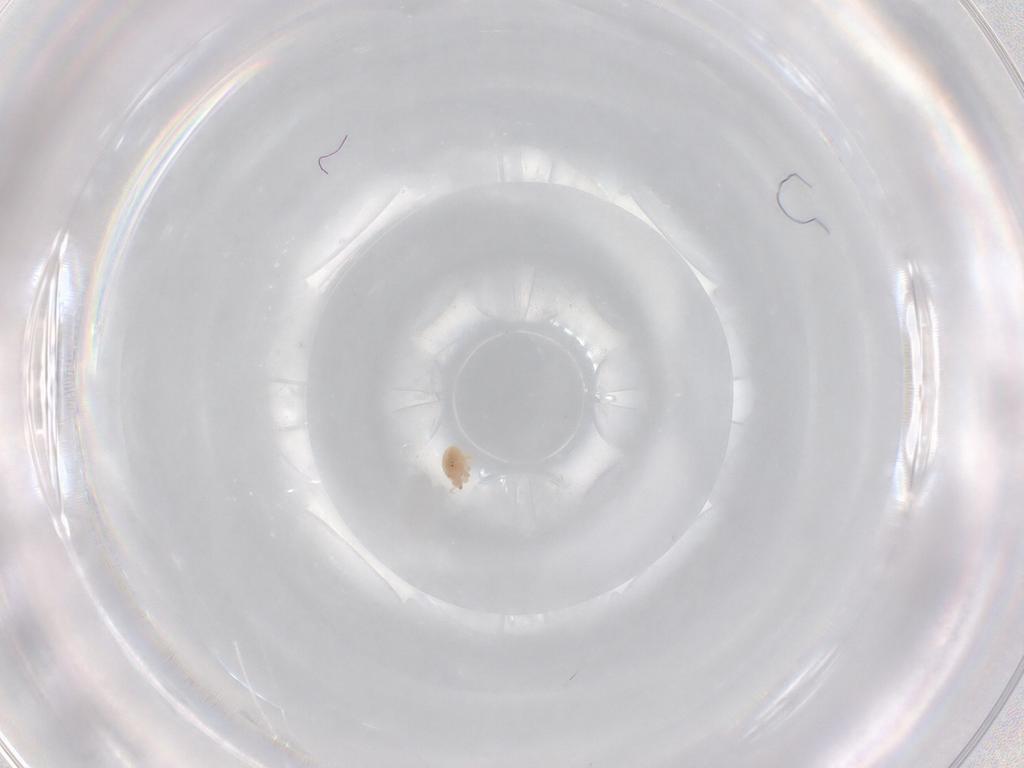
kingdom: Animalia
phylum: Arthropoda
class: Arachnida
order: Trombidiformes
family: Bdellidae
